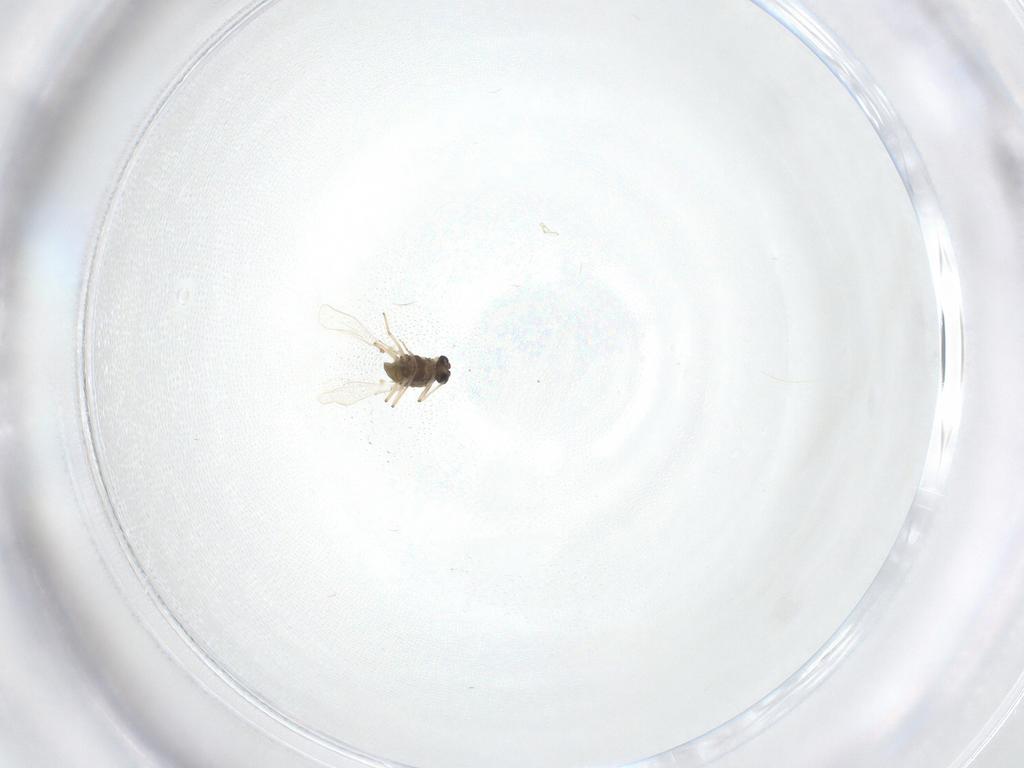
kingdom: Animalia
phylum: Arthropoda
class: Insecta
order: Diptera
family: Chironomidae
